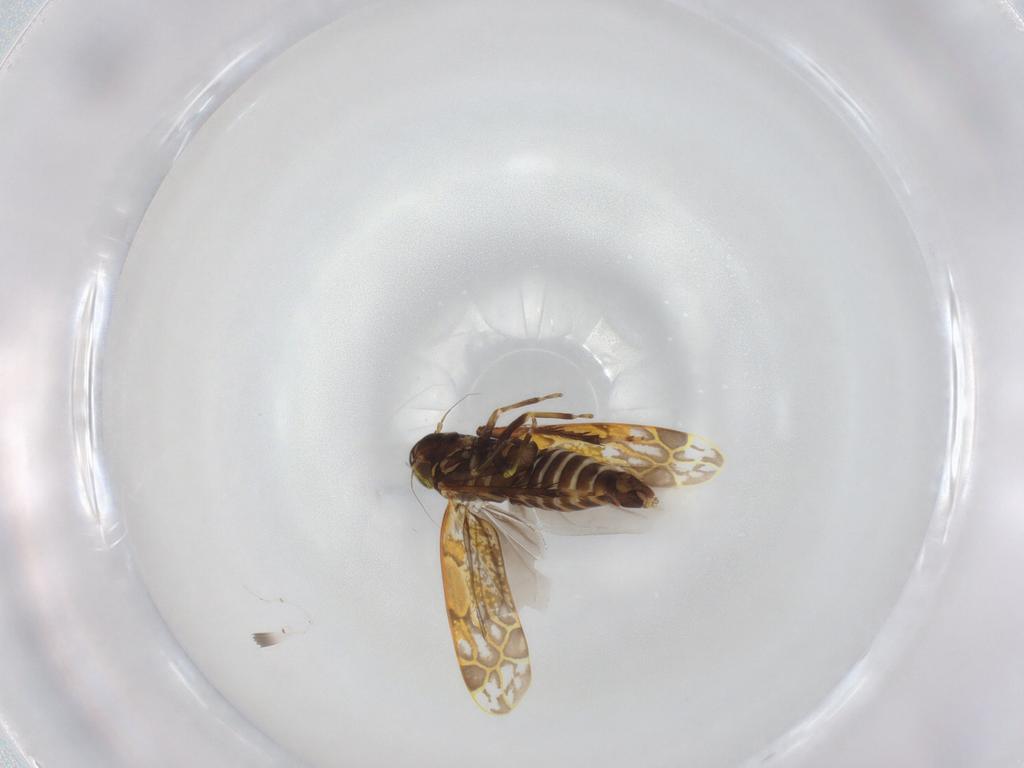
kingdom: Animalia
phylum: Arthropoda
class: Insecta
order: Hemiptera
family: Cicadellidae
